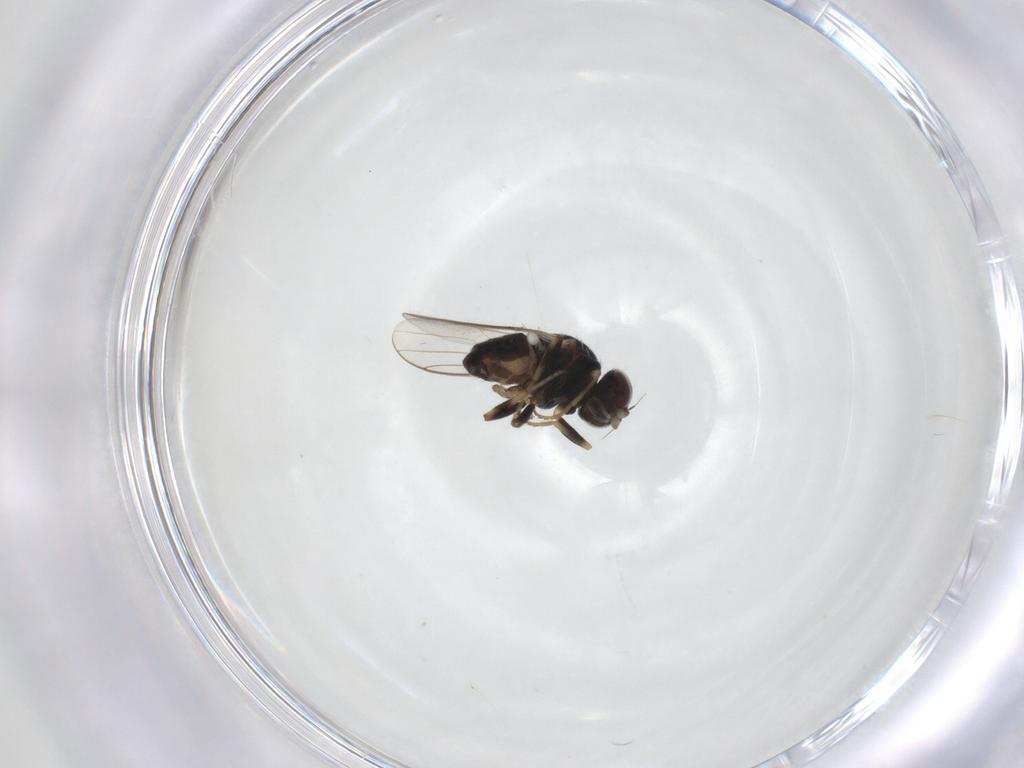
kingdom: Animalia
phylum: Arthropoda
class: Insecta
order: Diptera
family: Chloropidae
